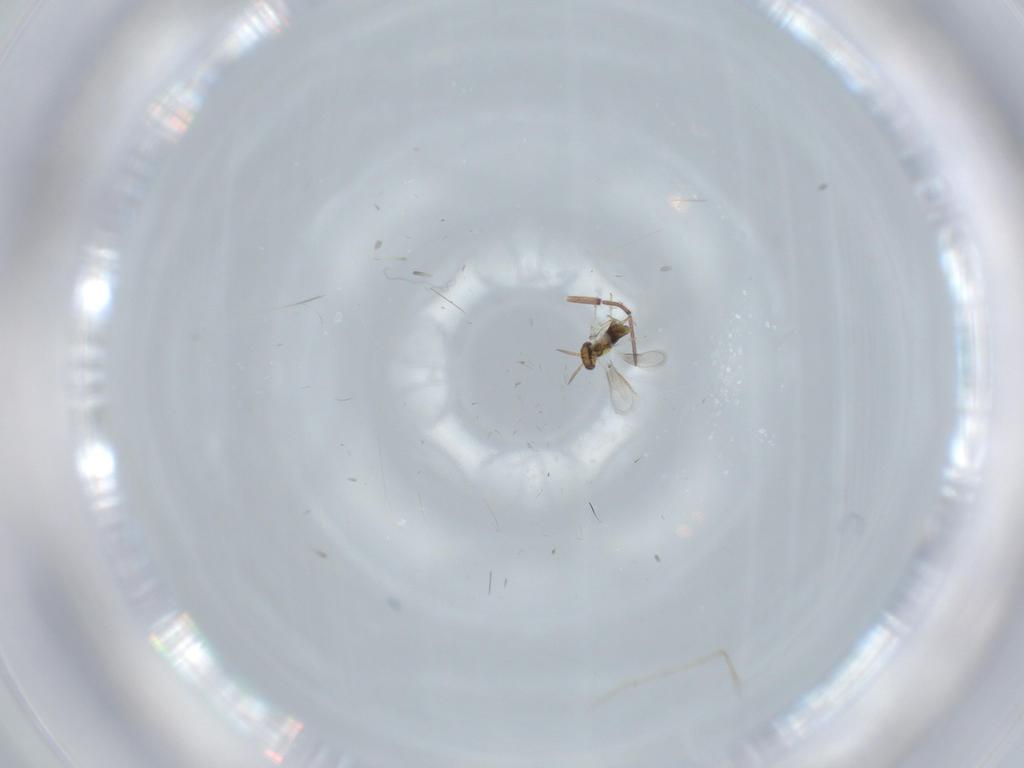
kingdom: Animalia
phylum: Arthropoda
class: Insecta
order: Hymenoptera
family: Aphelinidae
